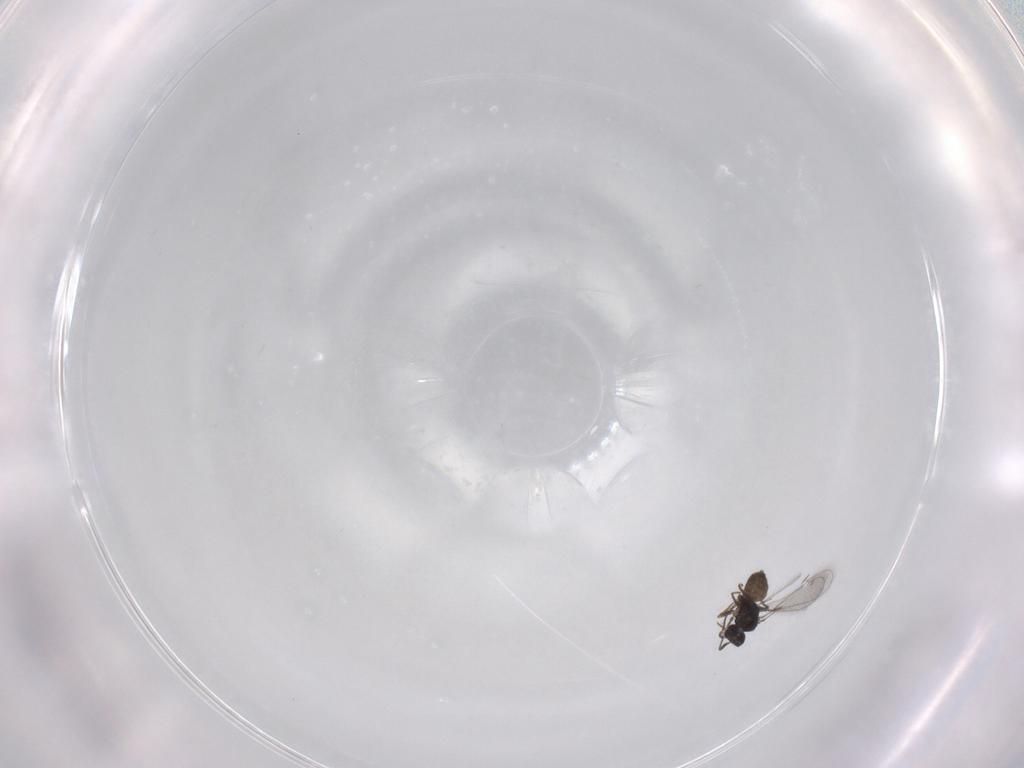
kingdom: Animalia
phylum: Arthropoda
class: Insecta
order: Hymenoptera
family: Mymaridae
